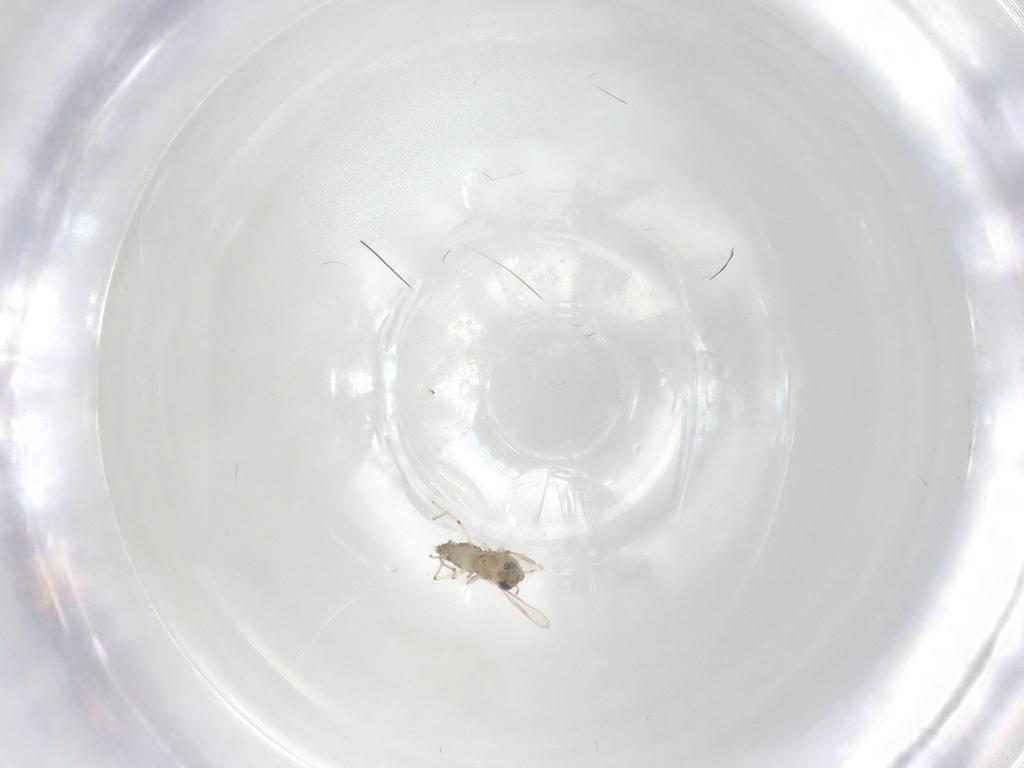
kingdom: Animalia
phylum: Arthropoda
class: Insecta
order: Diptera
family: Chironomidae
